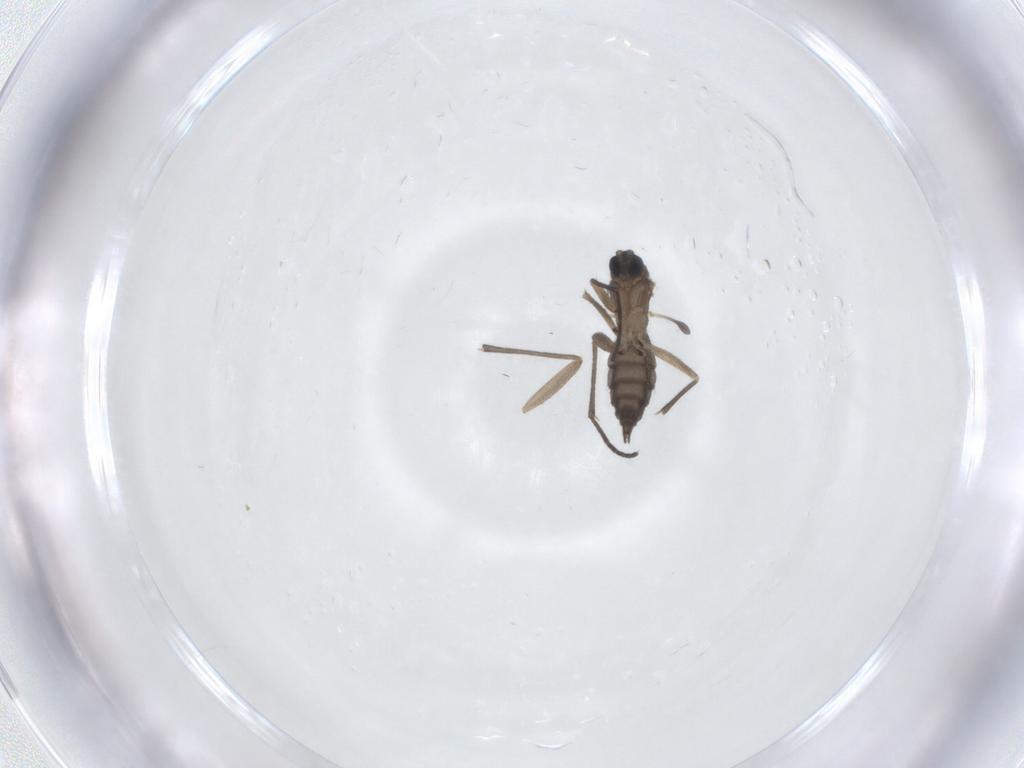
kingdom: Animalia
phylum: Arthropoda
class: Insecta
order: Diptera
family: Sciaridae
